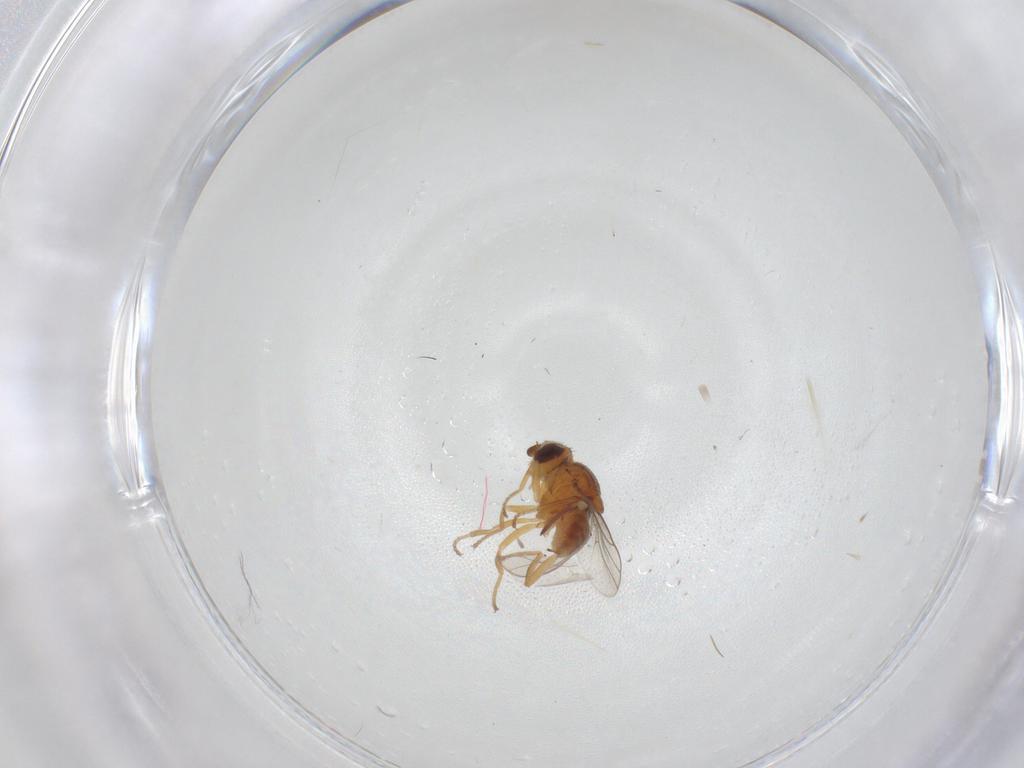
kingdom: Animalia
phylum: Arthropoda
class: Insecta
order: Diptera
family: Chloropidae
